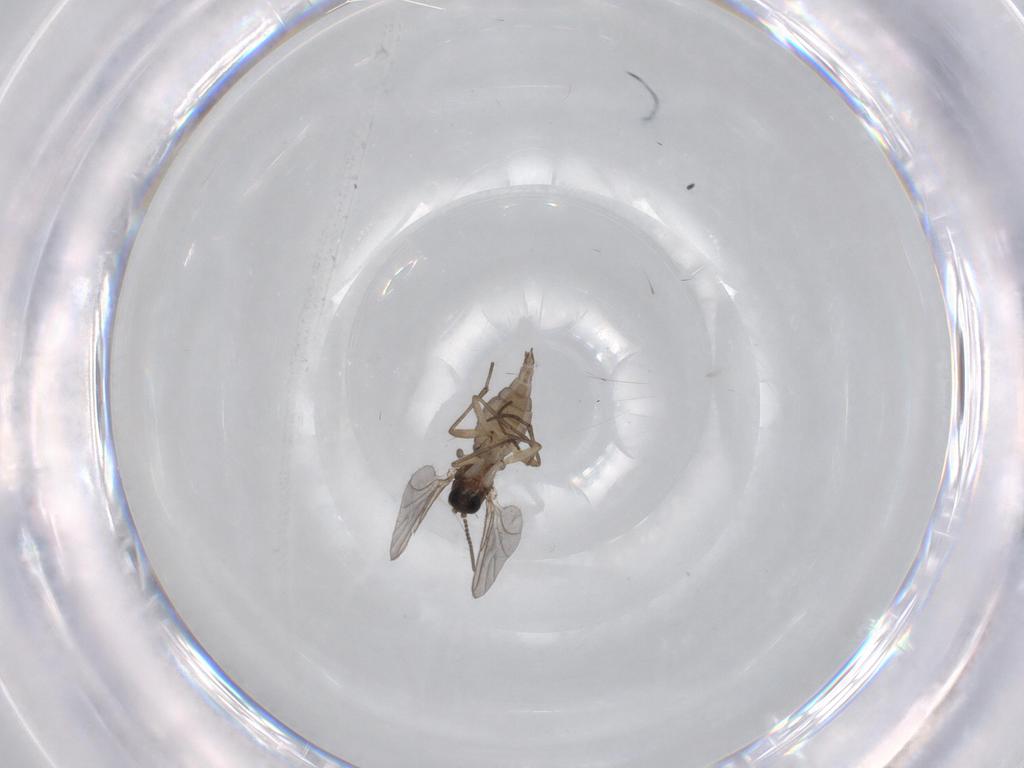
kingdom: Animalia
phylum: Arthropoda
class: Insecta
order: Diptera
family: Sciaridae
